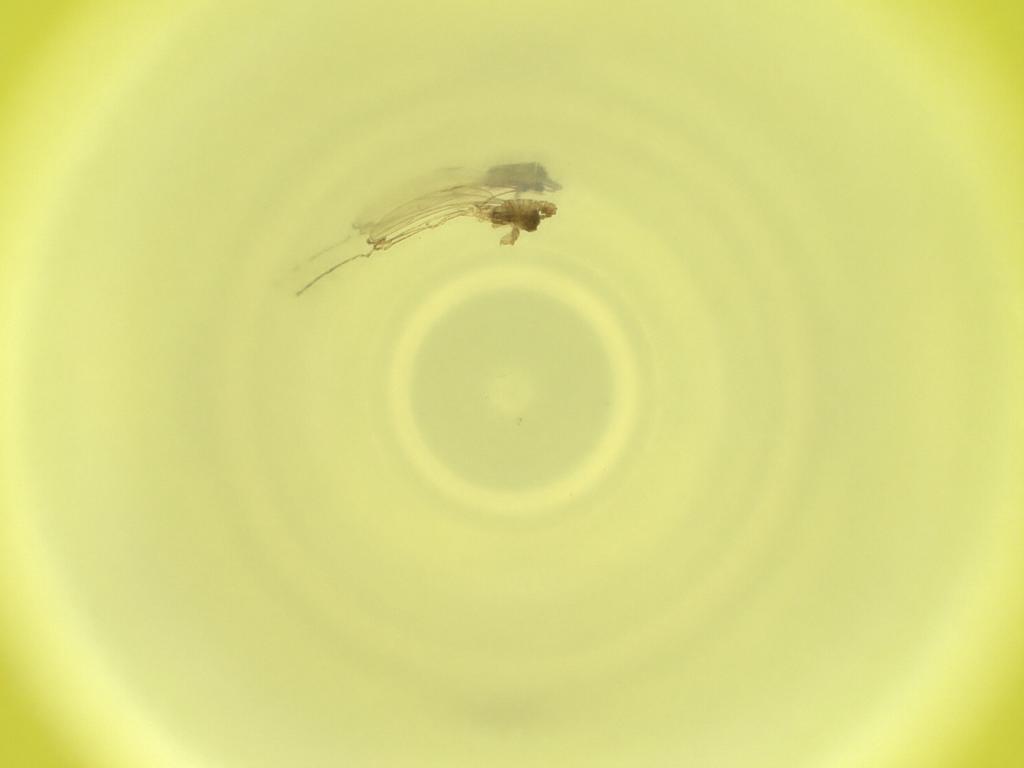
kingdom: Animalia
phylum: Arthropoda
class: Insecta
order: Diptera
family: Cecidomyiidae
